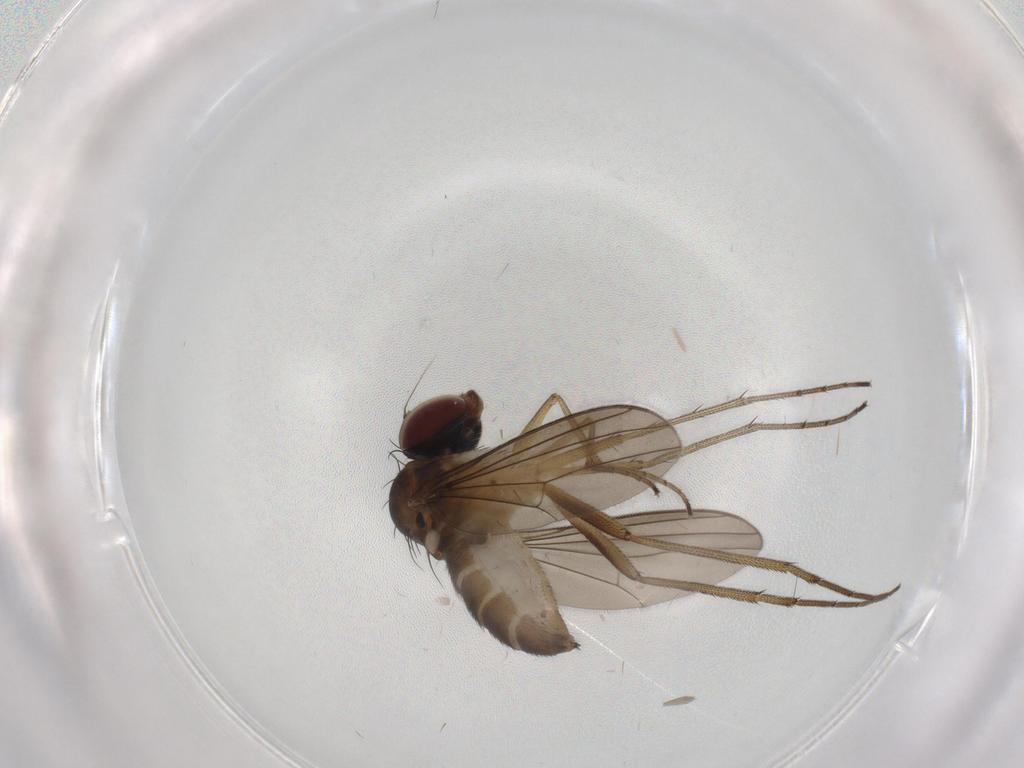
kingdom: Animalia
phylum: Arthropoda
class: Insecta
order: Diptera
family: Dolichopodidae
